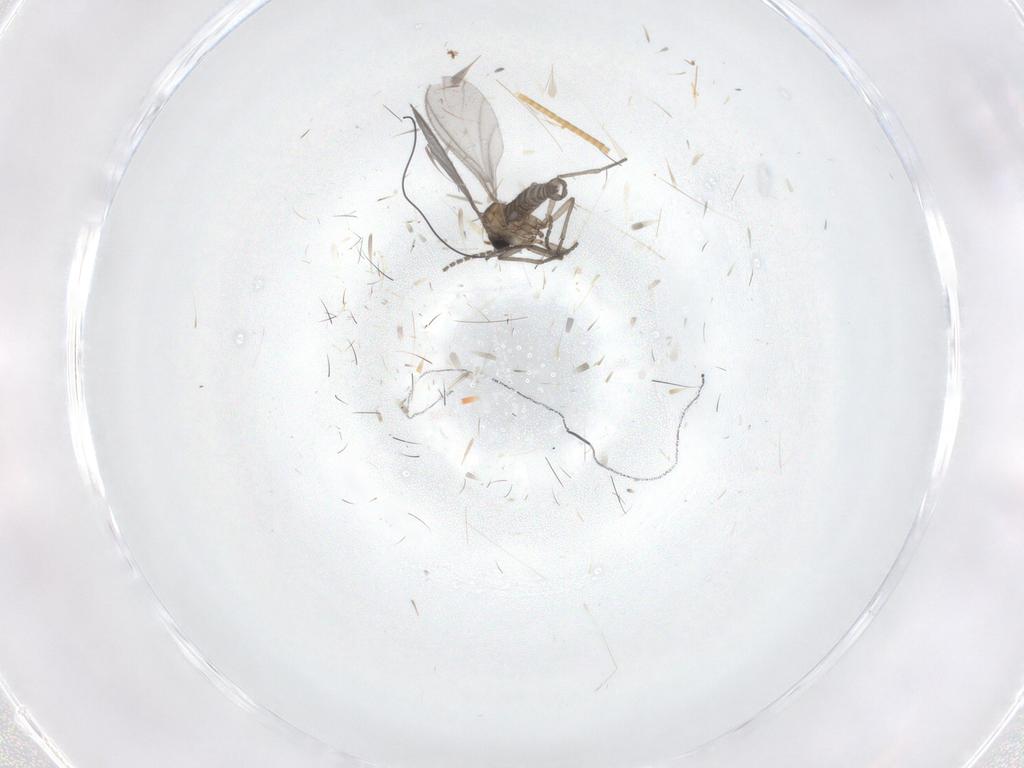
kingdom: Animalia
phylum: Arthropoda
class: Insecta
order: Diptera
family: Sciaridae
